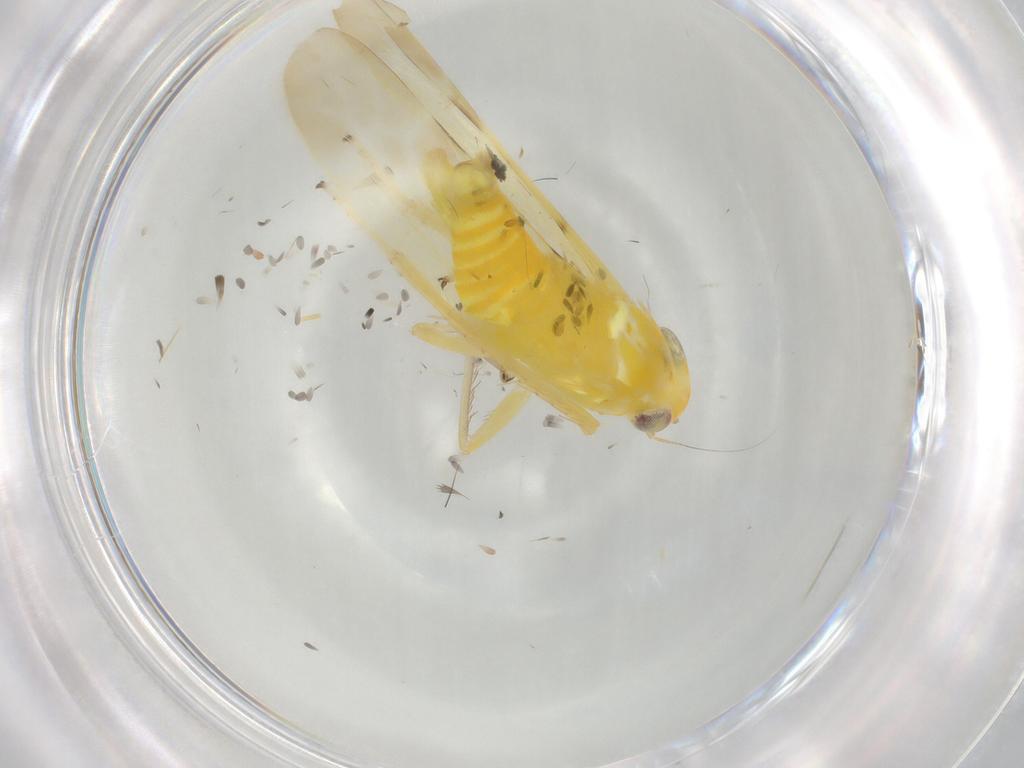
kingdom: Animalia
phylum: Arthropoda
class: Insecta
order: Hemiptera
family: Cicadellidae
